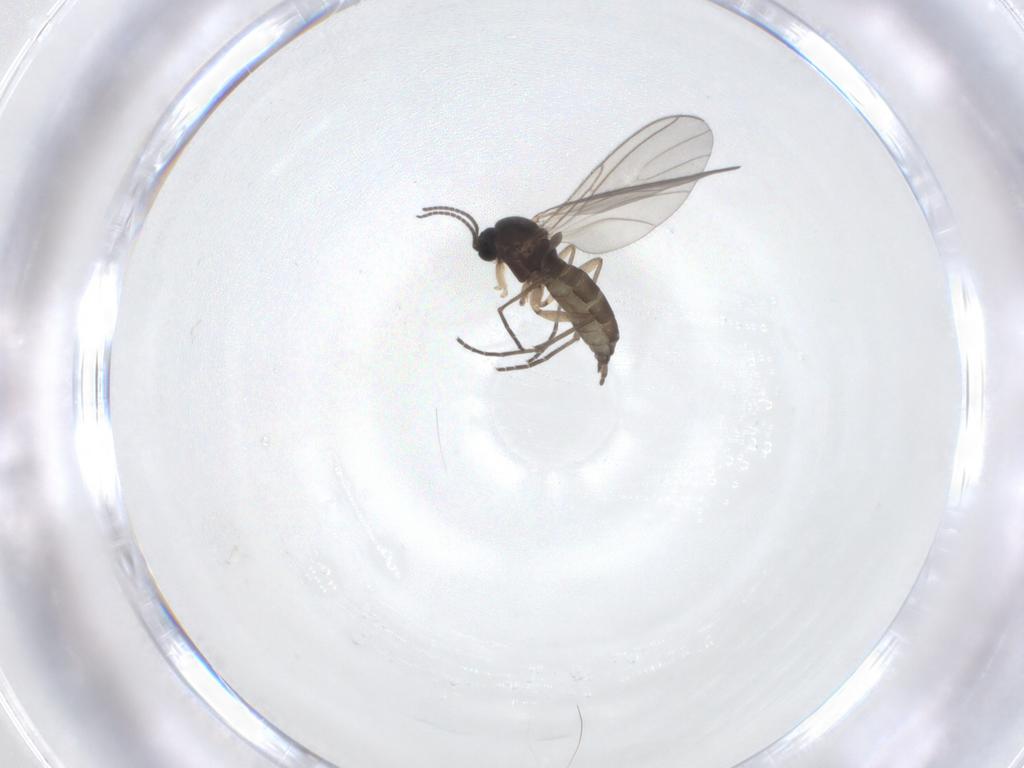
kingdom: Animalia
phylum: Arthropoda
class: Insecta
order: Diptera
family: Sciaridae
